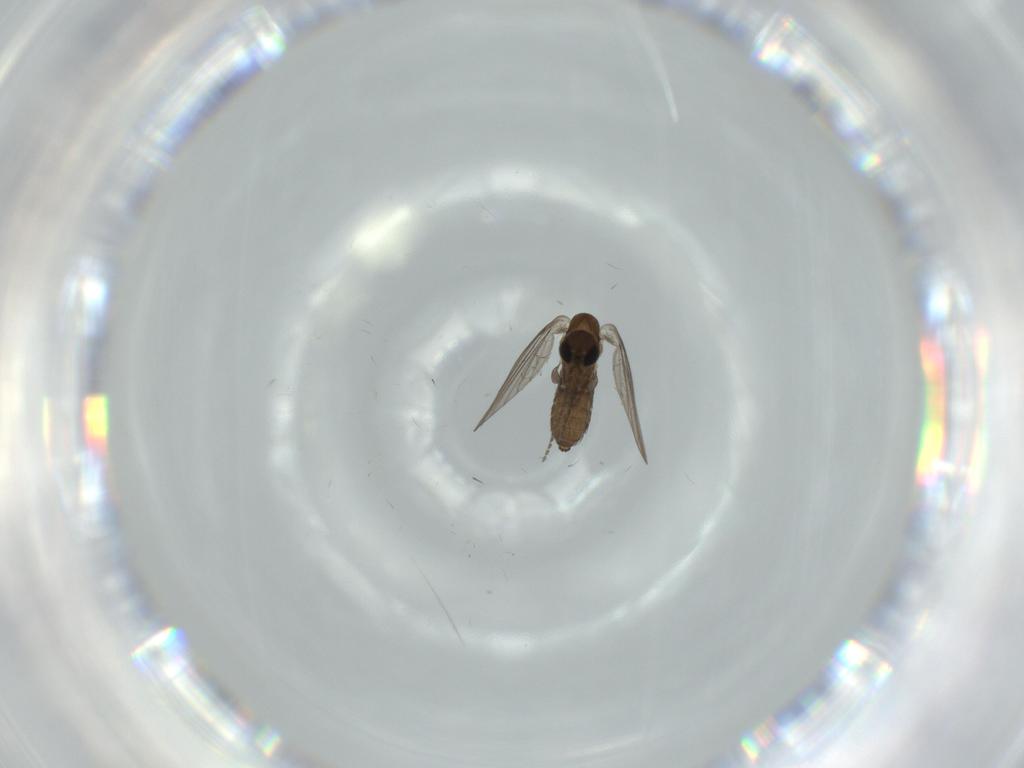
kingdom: Animalia
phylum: Arthropoda
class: Insecta
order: Diptera
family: Psychodidae
